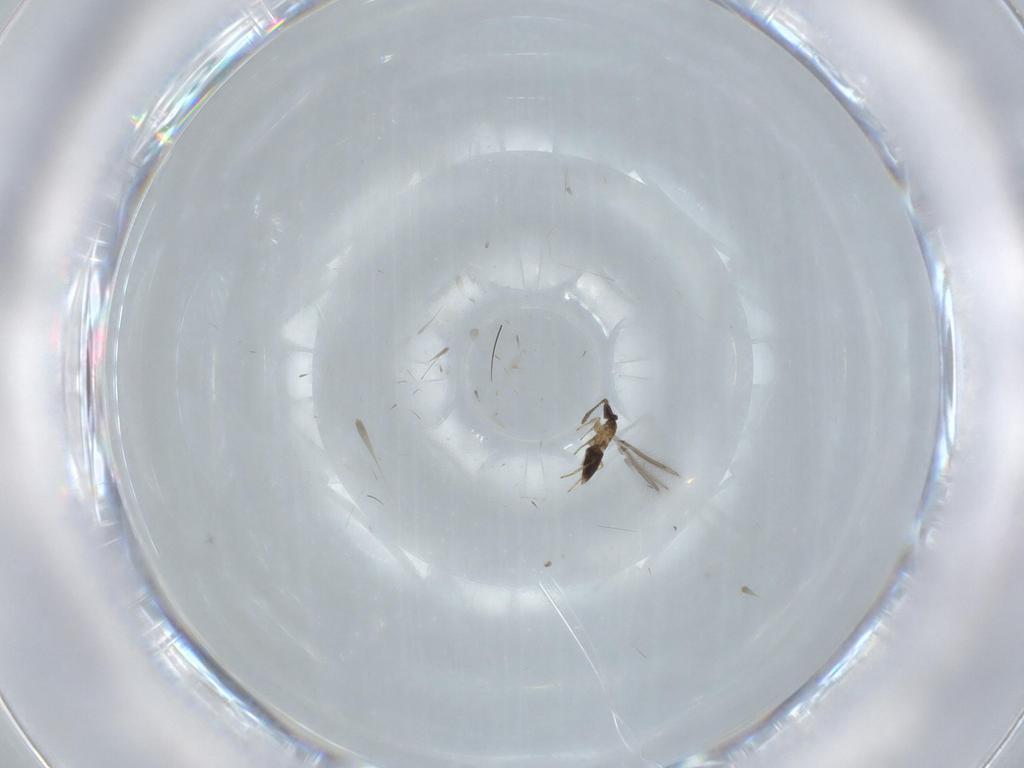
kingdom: Animalia
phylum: Arthropoda
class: Insecta
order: Hymenoptera
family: Mymaridae
